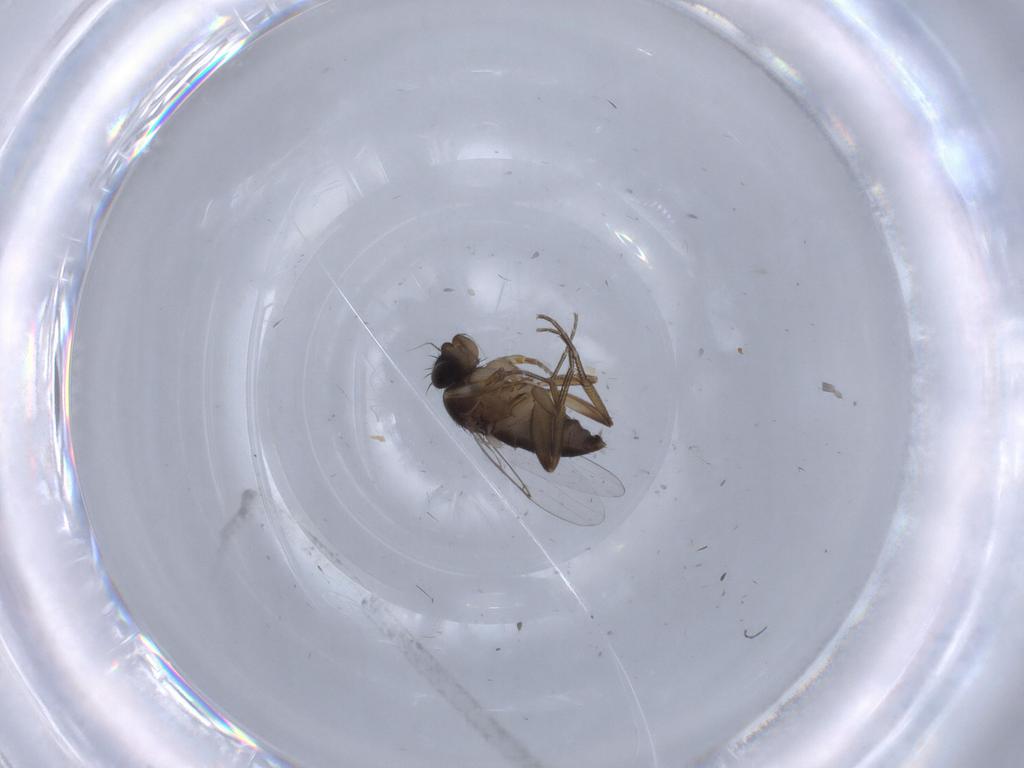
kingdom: Animalia
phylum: Arthropoda
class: Insecta
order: Diptera
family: Phoridae
